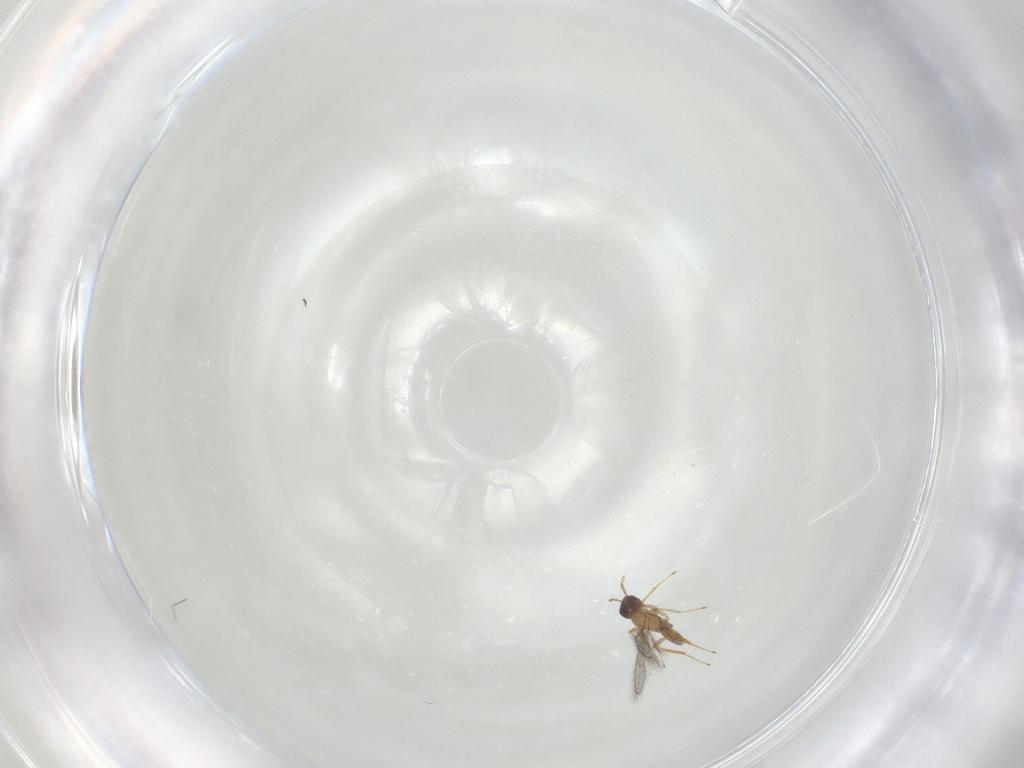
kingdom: Animalia
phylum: Arthropoda
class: Insecta
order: Hymenoptera
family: Mymaridae
